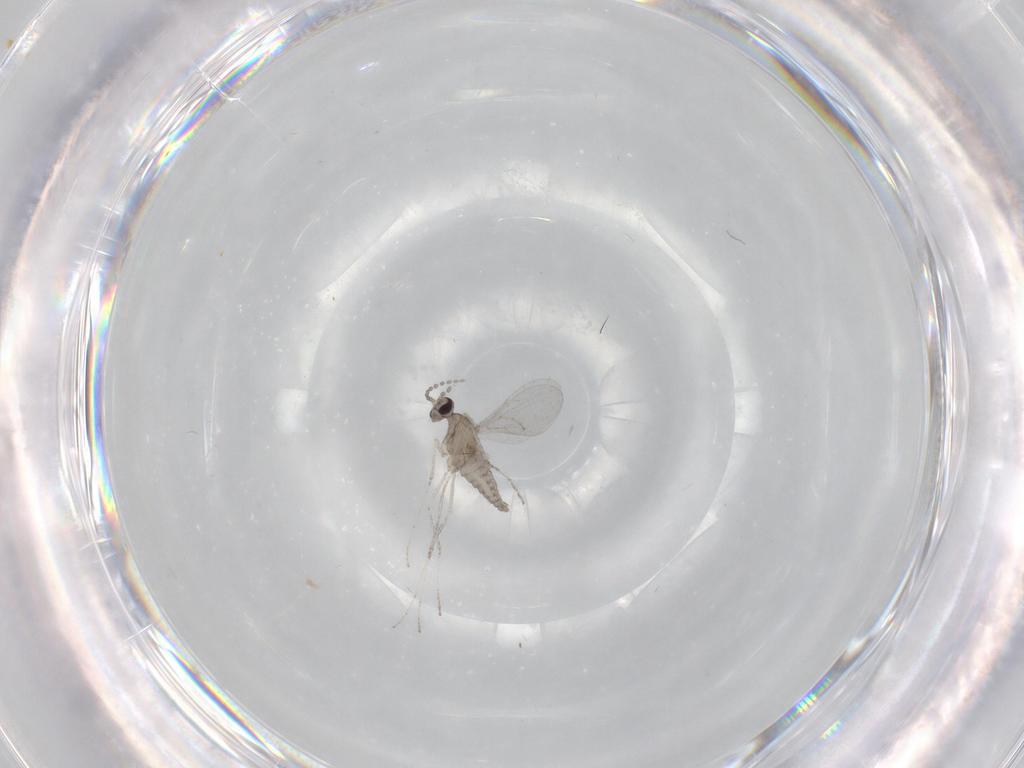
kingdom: Animalia
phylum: Arthropoda
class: Insecta
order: Diptera
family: Cecidomyiidae
